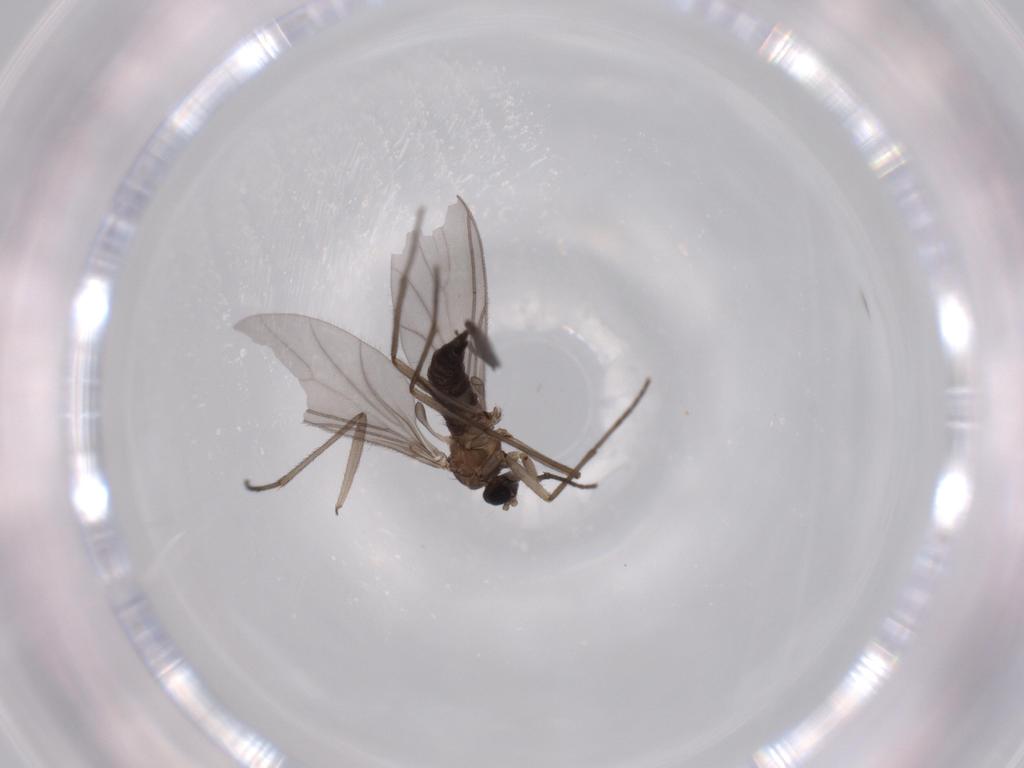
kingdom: Animalia
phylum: Arthropoda
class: Insecta
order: Diptera
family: Sciaridae
